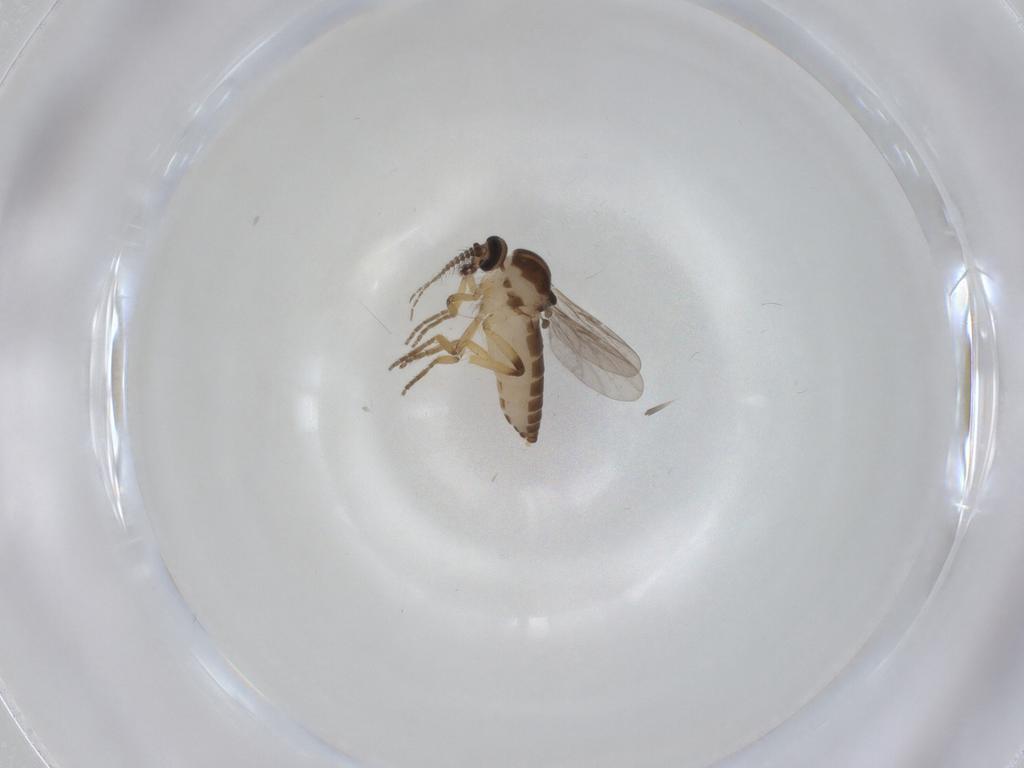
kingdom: Animalia
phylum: Arthropoda
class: Insecta
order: Diptera
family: Ceratopogonidae
